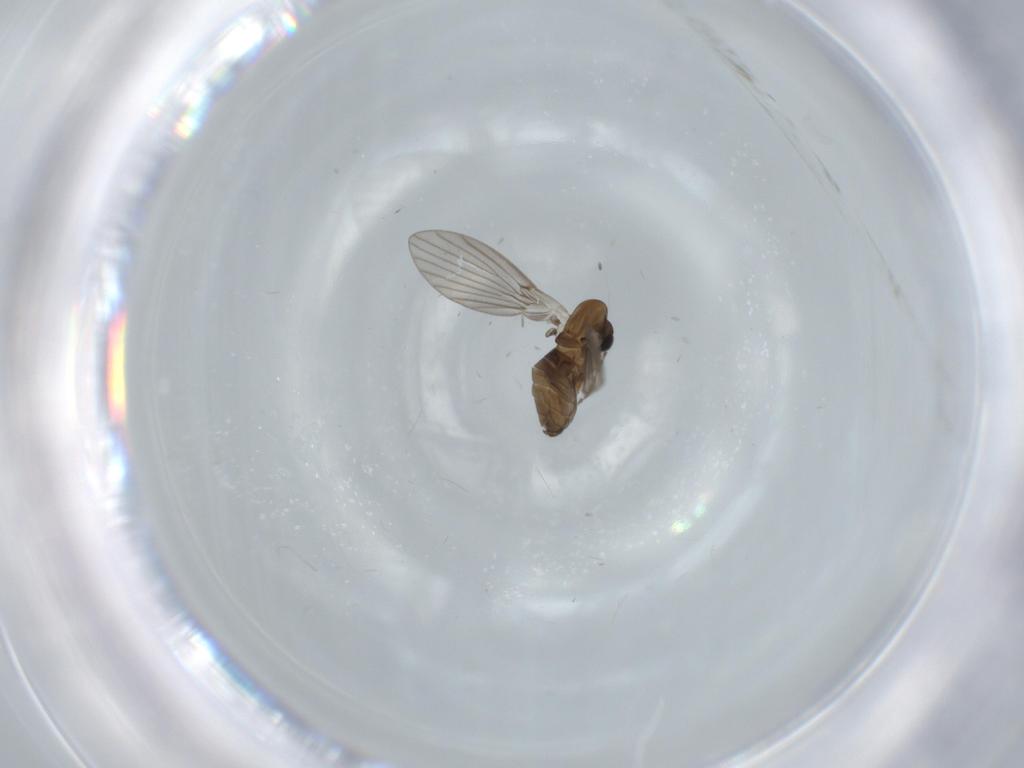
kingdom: Animalia
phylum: Arthropoda
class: Insecta
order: Diptera
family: Sciaridae
